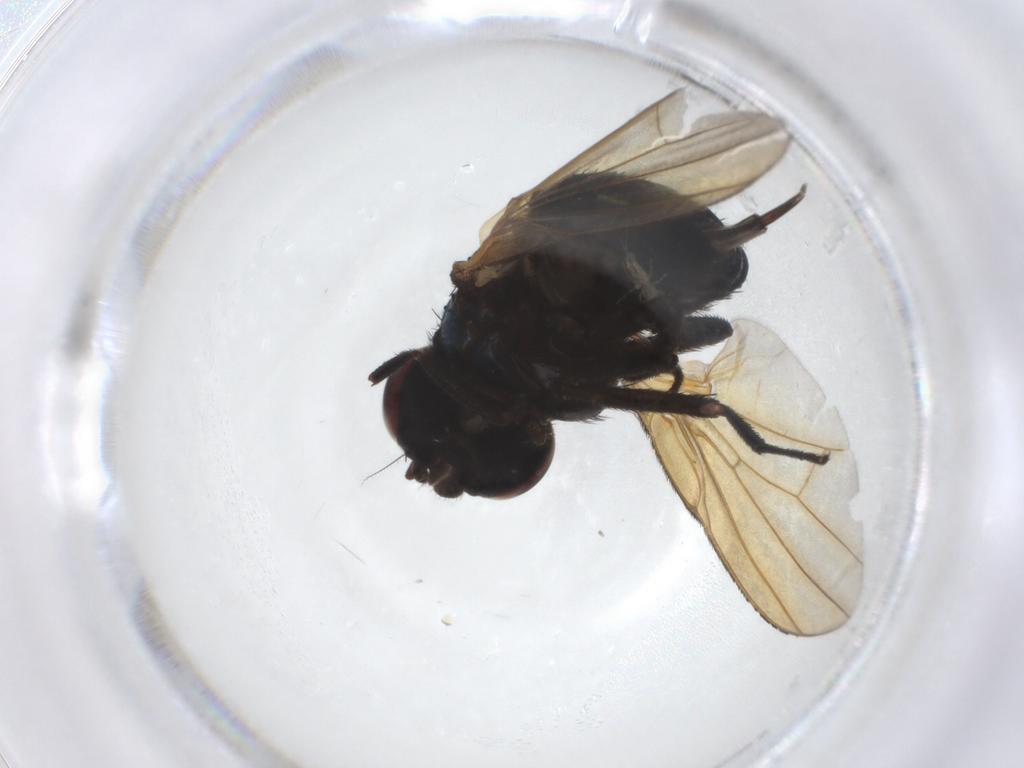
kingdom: Animalia
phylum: Arthropoda
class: Insecta
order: Diptera
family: Lonchaeidae
